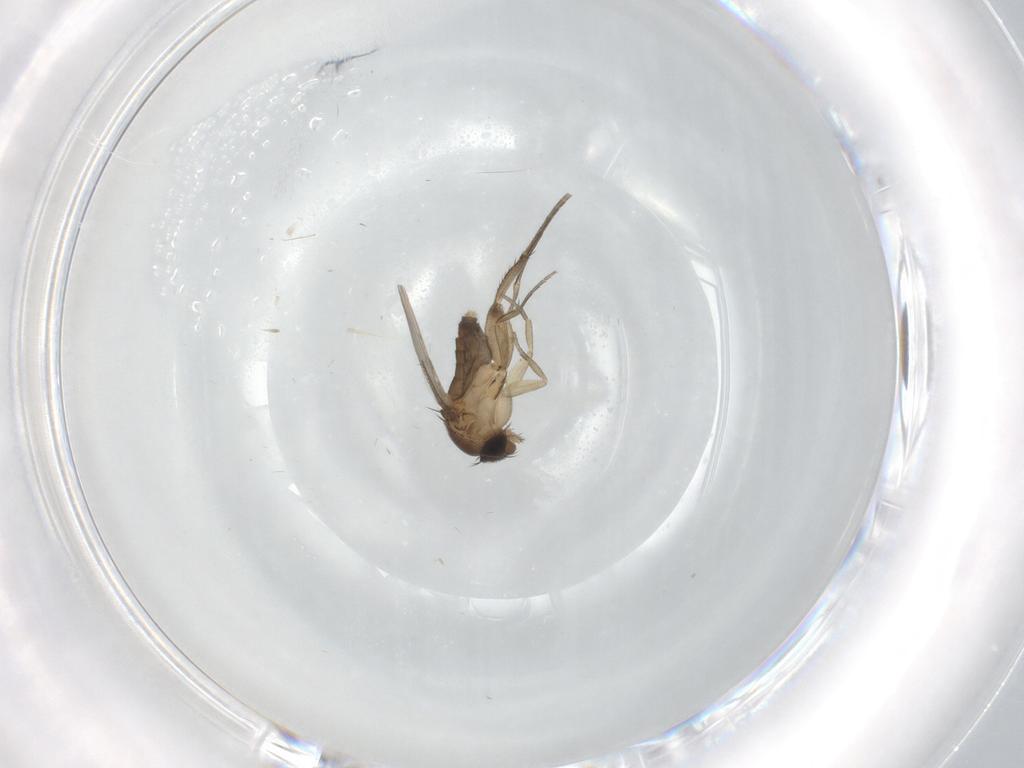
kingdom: Animalia
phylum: Arthropoda
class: Insecta
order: Diptera
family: Phoridae
